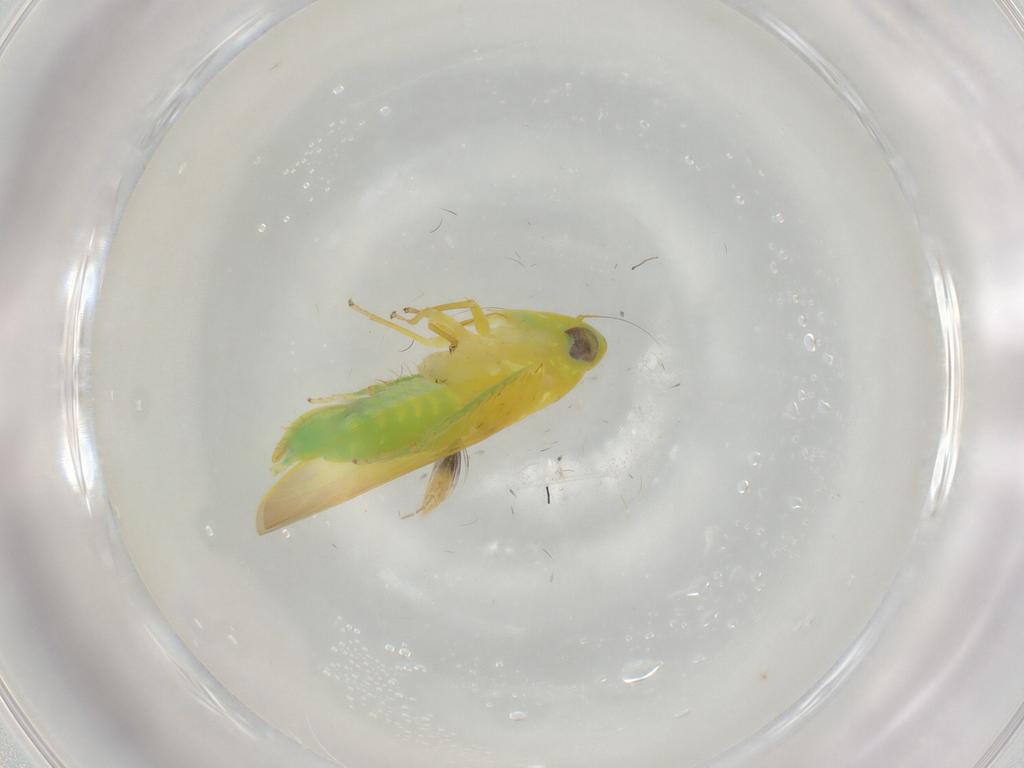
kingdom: Animalia
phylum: Arthropoda
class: Insecta
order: Hemiptera
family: Cicadellidae
